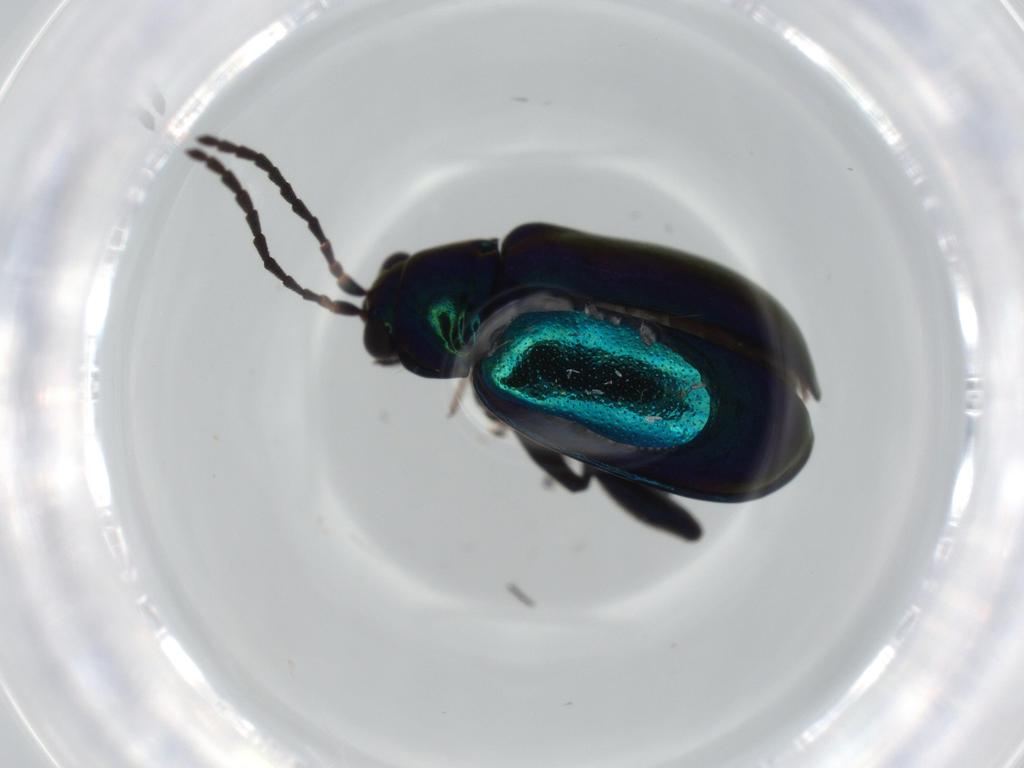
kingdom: Animalia
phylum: Arthropoda
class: Insecta
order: Coleoptera
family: Chrysomelidae
